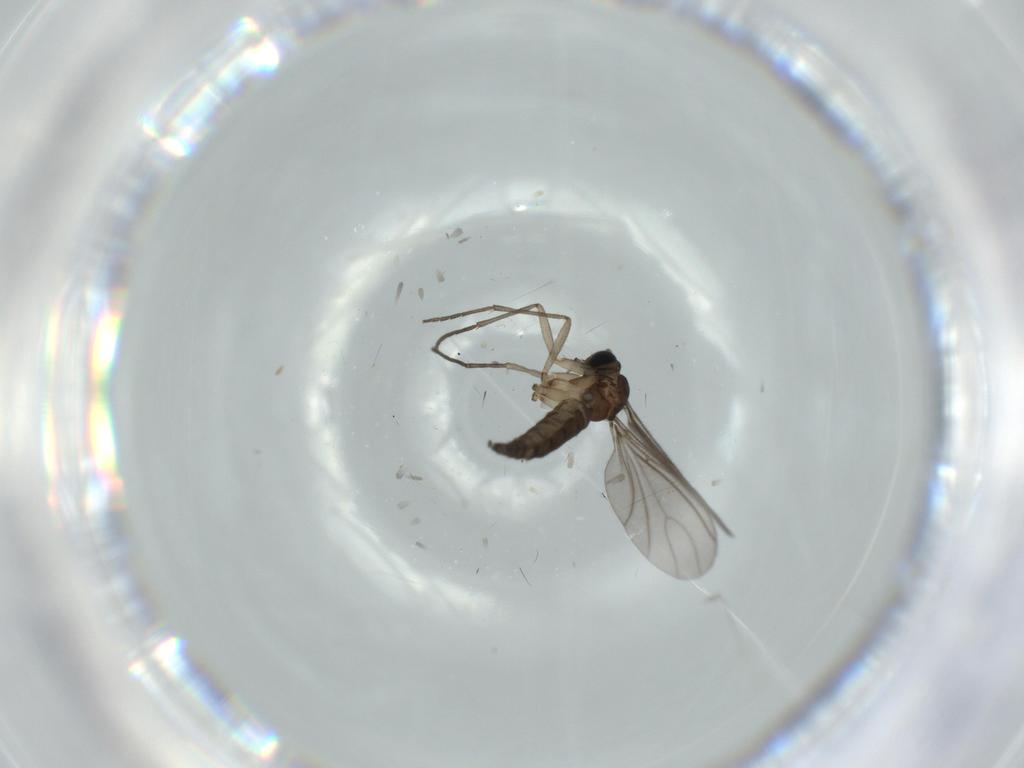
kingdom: Animalia
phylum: Arthropoda
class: Insecta
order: Diptera
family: Sciaridae
